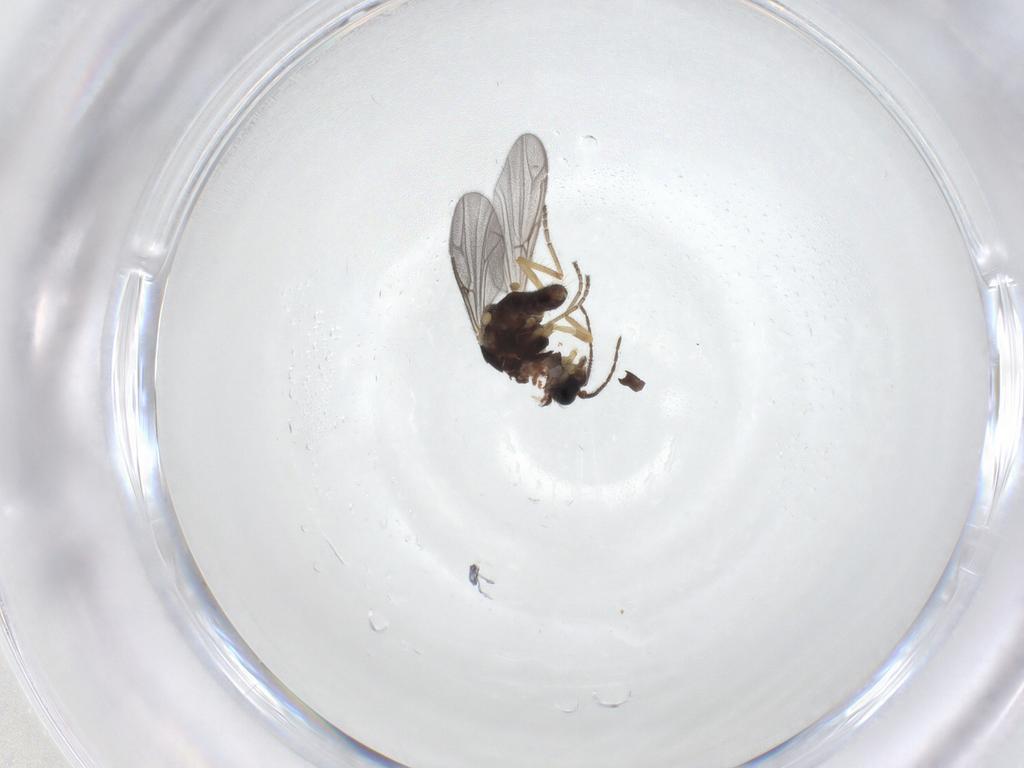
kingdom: Animalia
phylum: Arthropoda
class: Insecta
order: Diptera
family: Ceratopogonidae
